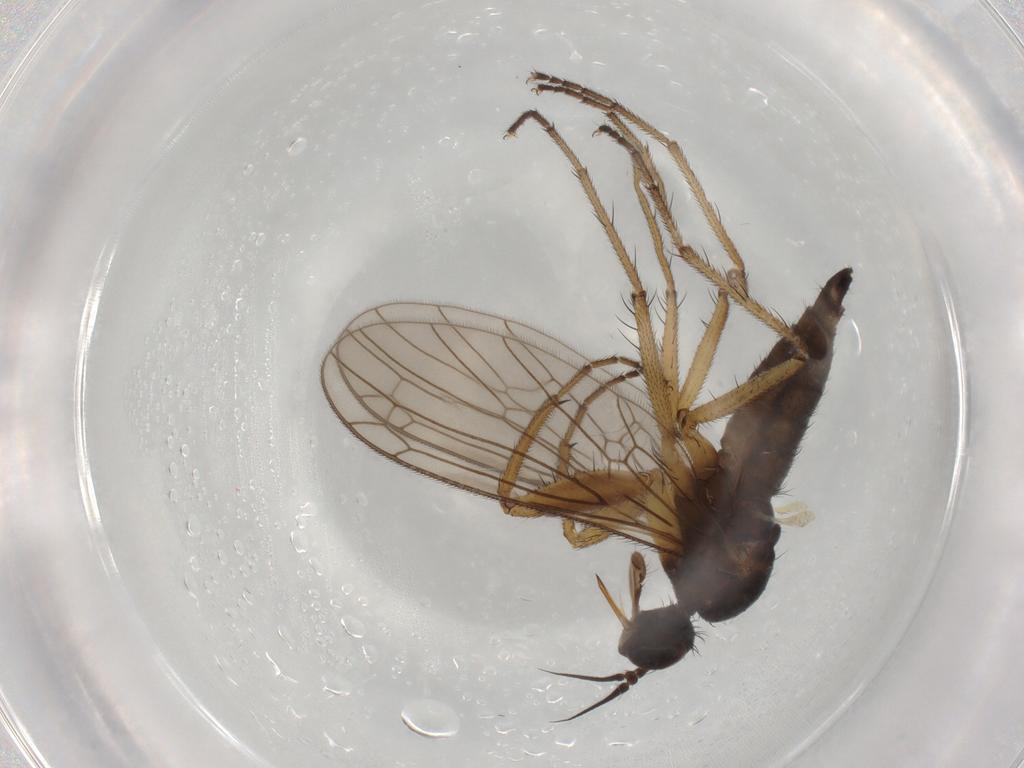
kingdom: Animalia
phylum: Arthropoda
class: Insecta
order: Diptera
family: Empididae
